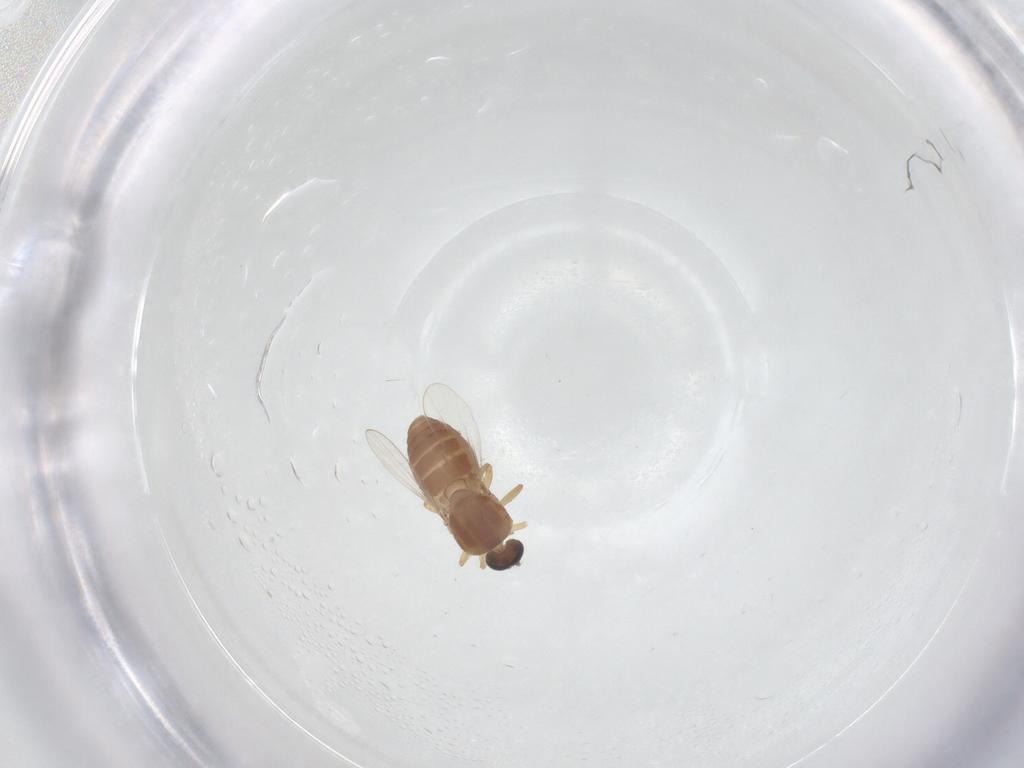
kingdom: Animalia
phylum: Arthropoda
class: Insecta
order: Diptera
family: Ceratopogonidae
